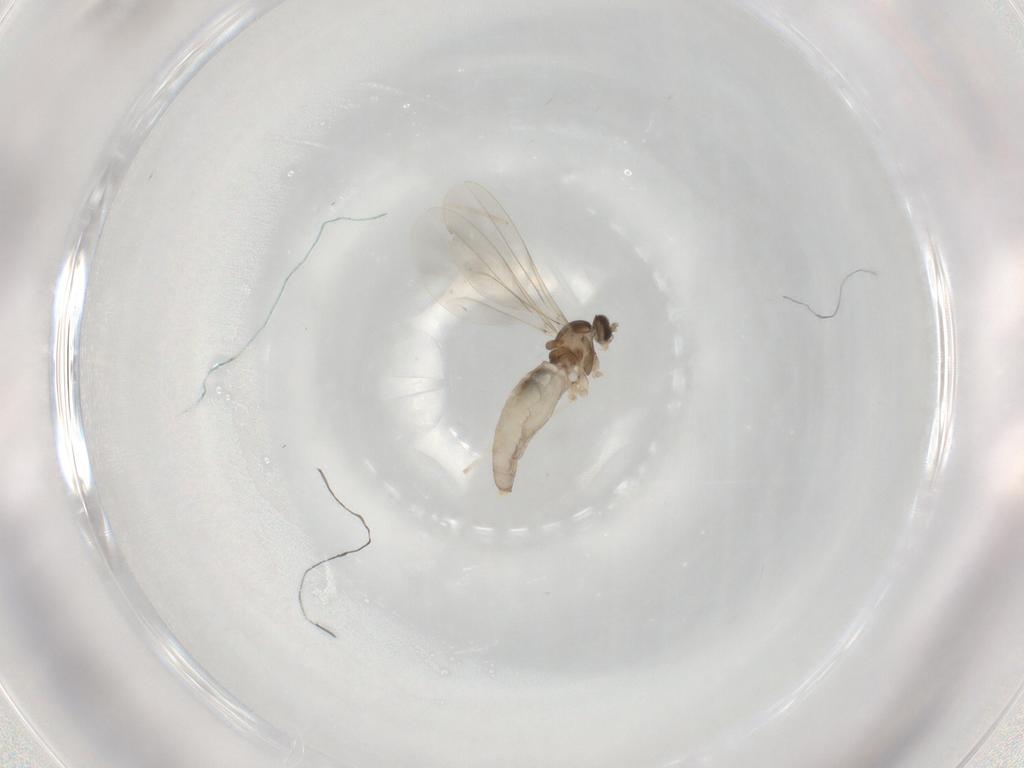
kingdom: Animalia
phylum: Arthropoda
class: Insecta
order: Diptera
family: Cecidomyiidae
